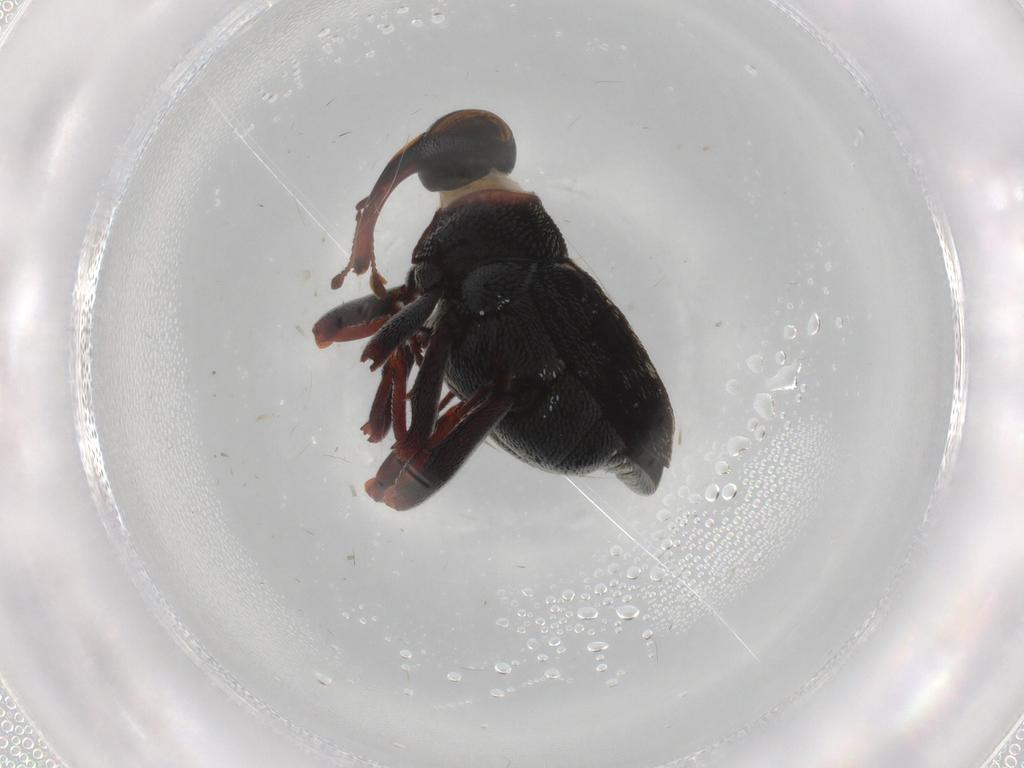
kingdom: Animalia
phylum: Arthropoda
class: Insecta
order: Coleoptera
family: Curculionidae
